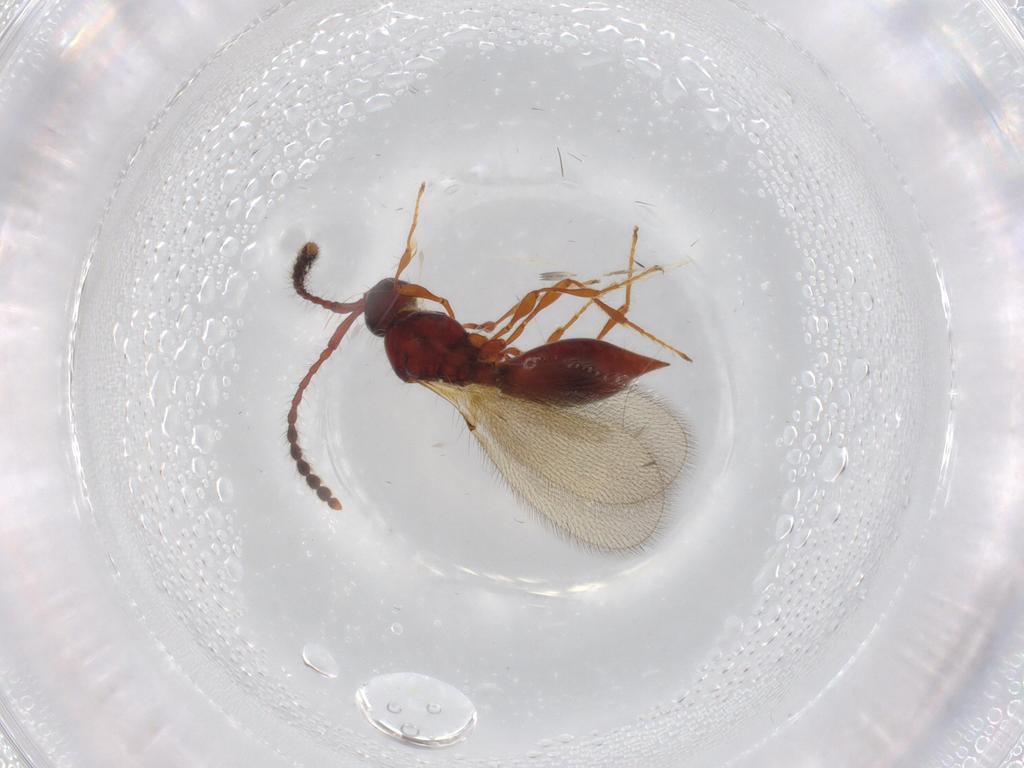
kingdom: Animalia
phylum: Arthropoda
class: Insecta
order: Hymenoptera
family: Diapriidae
